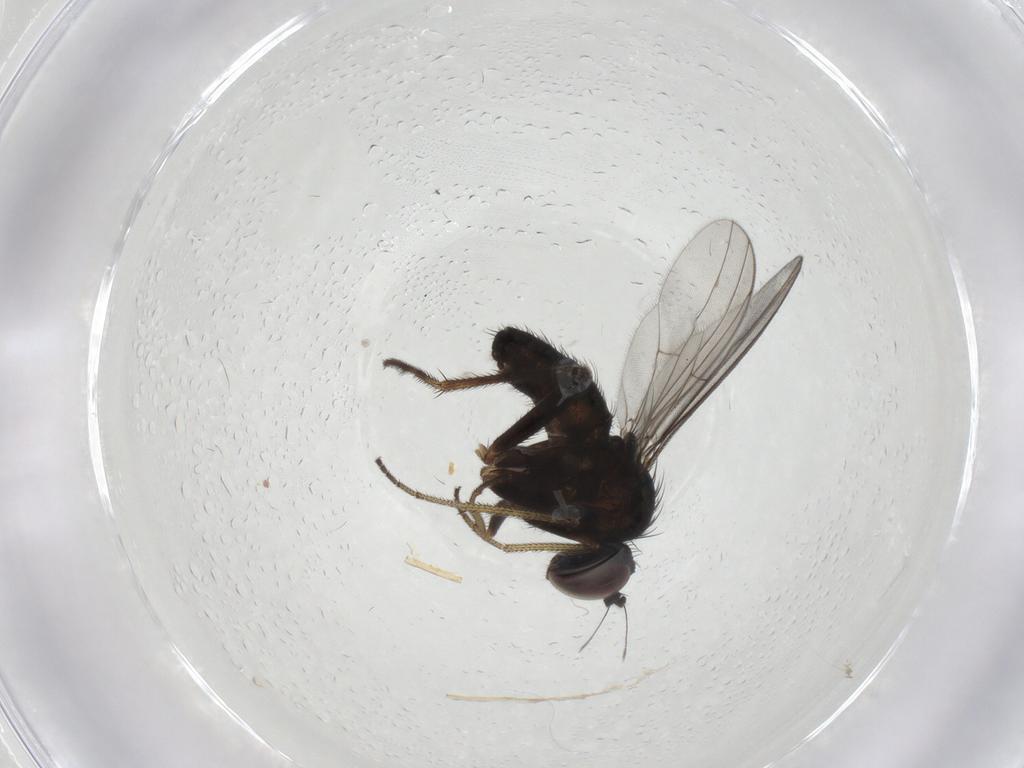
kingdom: Animalia
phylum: Arthropoda
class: Insecta
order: Diptera
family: Dolichopodidae
